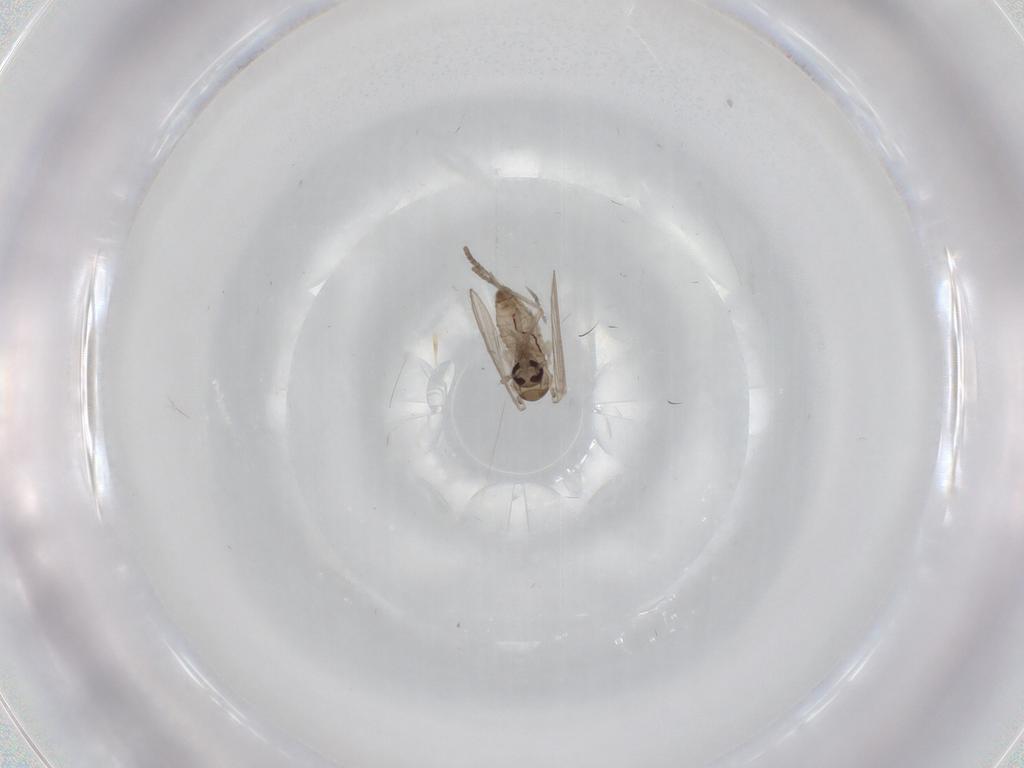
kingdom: Animalia
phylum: Arthropoda
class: Insecta
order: Diptera
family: Psychodidae
